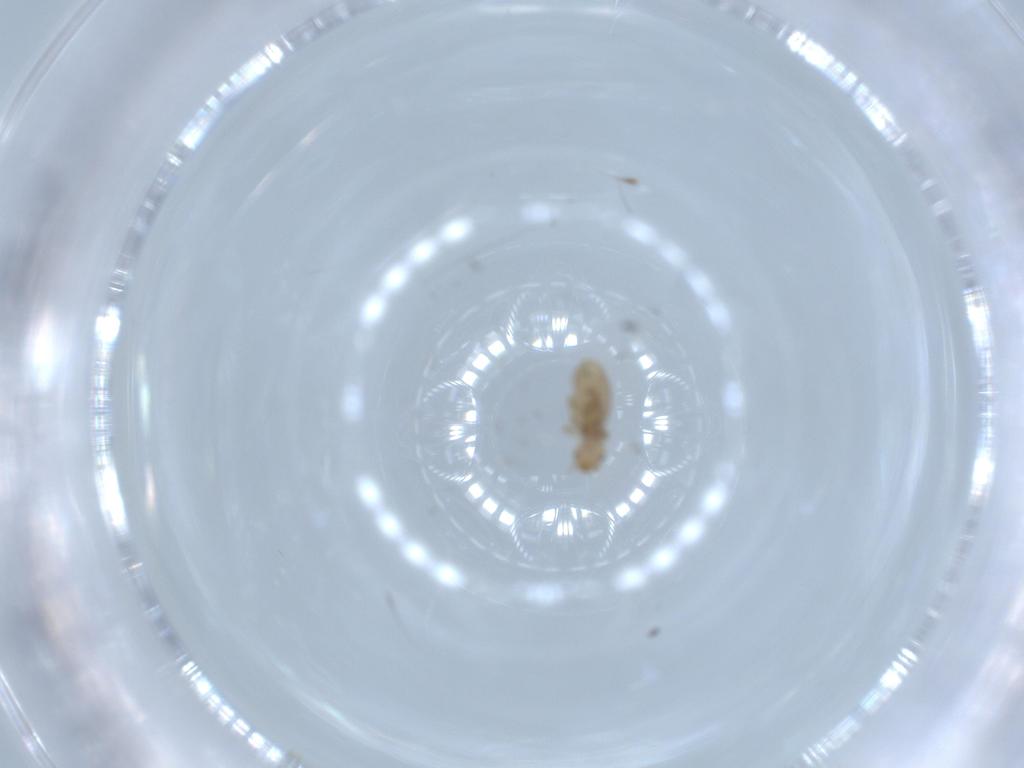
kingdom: Animalia
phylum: Arthropoda
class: Insecta
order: Psocodea
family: Liposcelididae
